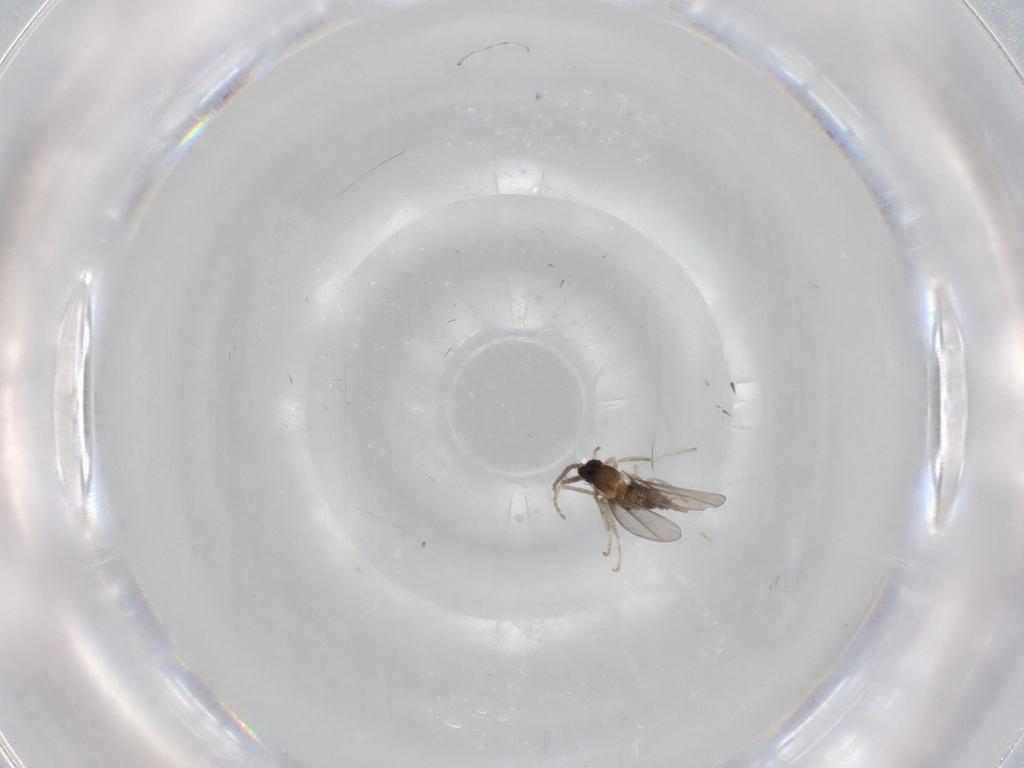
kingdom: Animalia
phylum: Arthropoda
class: Insecta
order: Diptera
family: Cecidomyiidae
